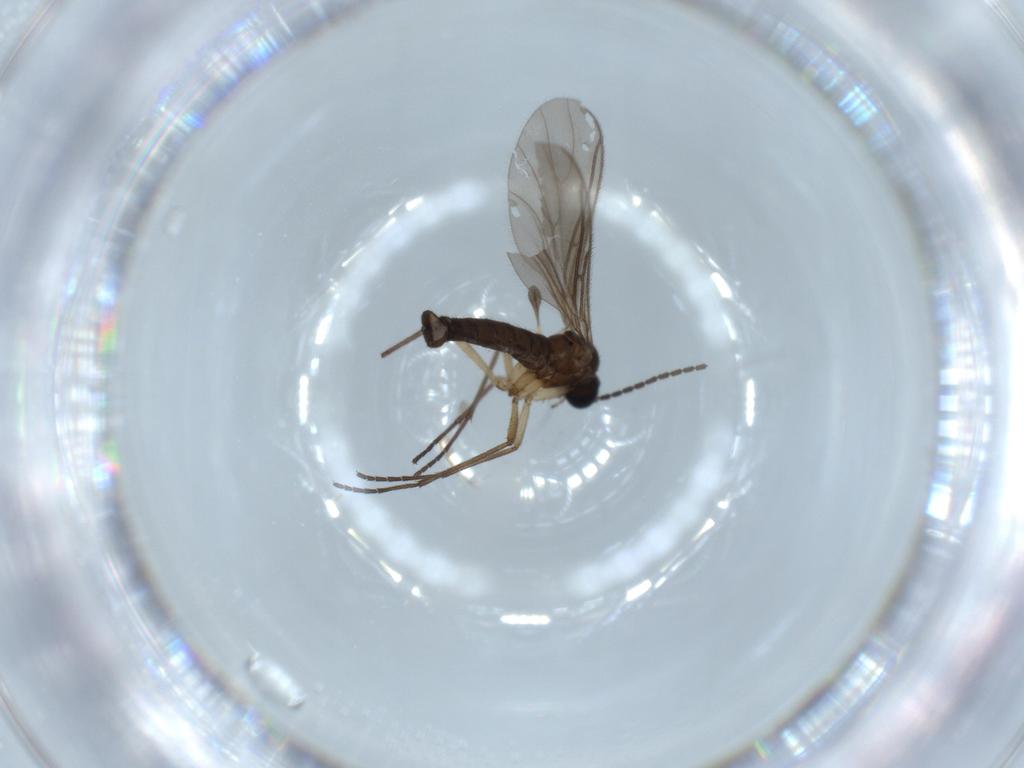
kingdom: Animalia
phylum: Arthropoda
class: Insecta
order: Diptera
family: Sciaridae
